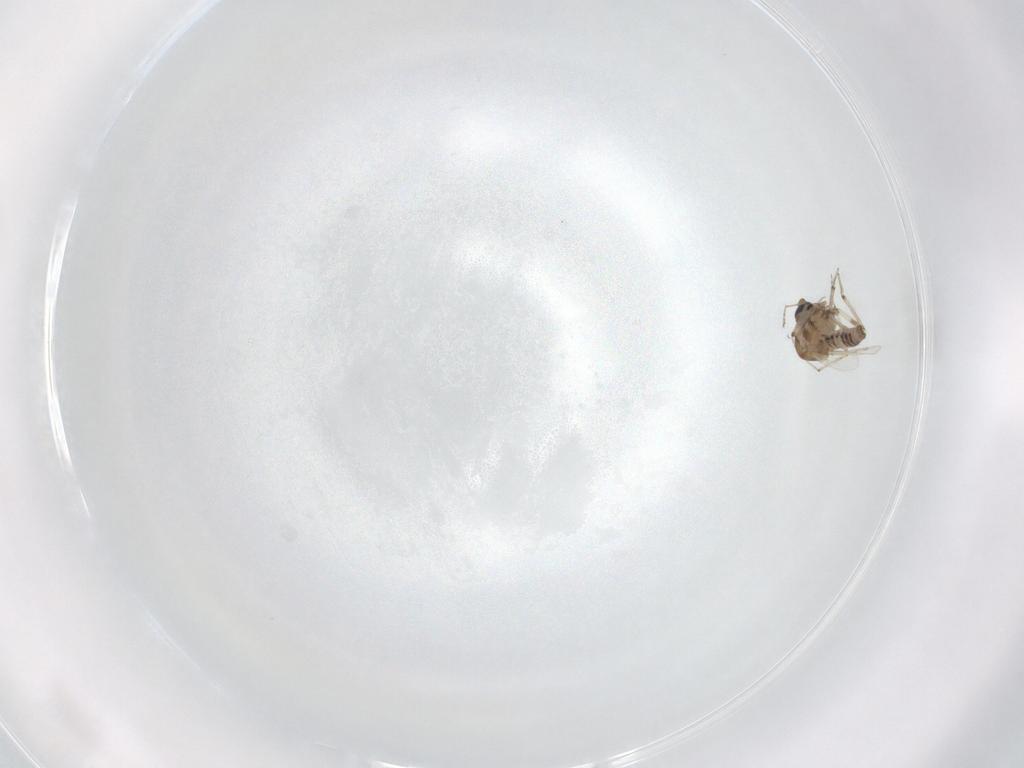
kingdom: Animalia
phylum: Arthropoda
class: Insecta
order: Diptera
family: Ceratopogonidae
